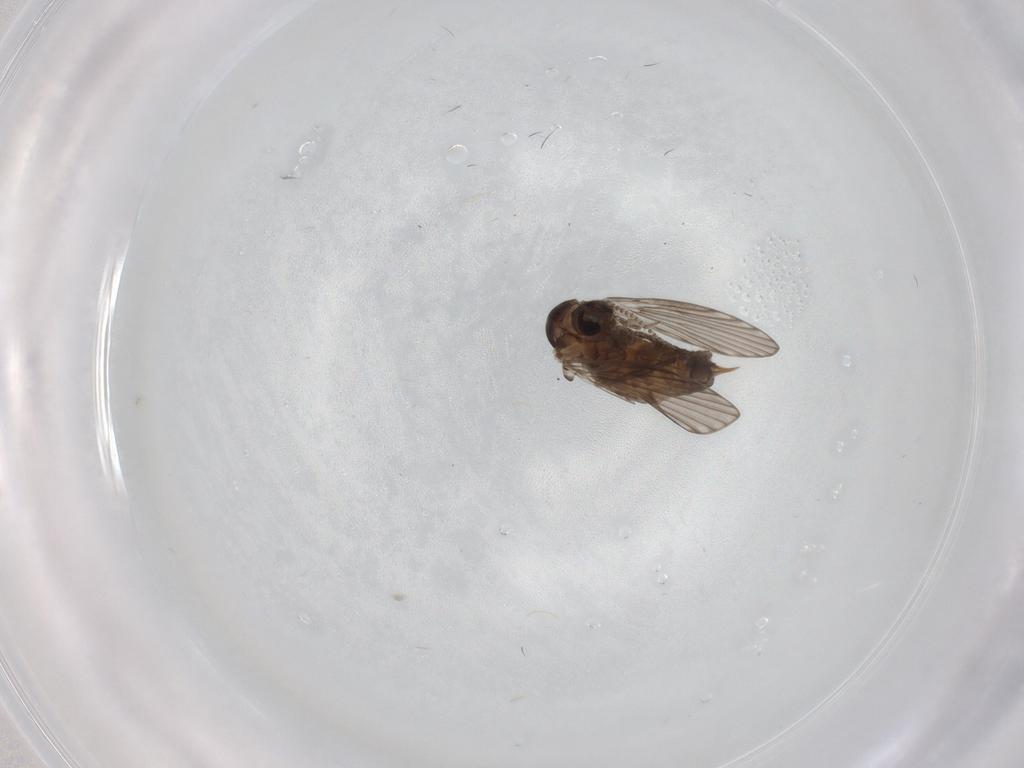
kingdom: Animalia
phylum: Arthropoda
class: Insecta
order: Diptera
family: Psychodidae
